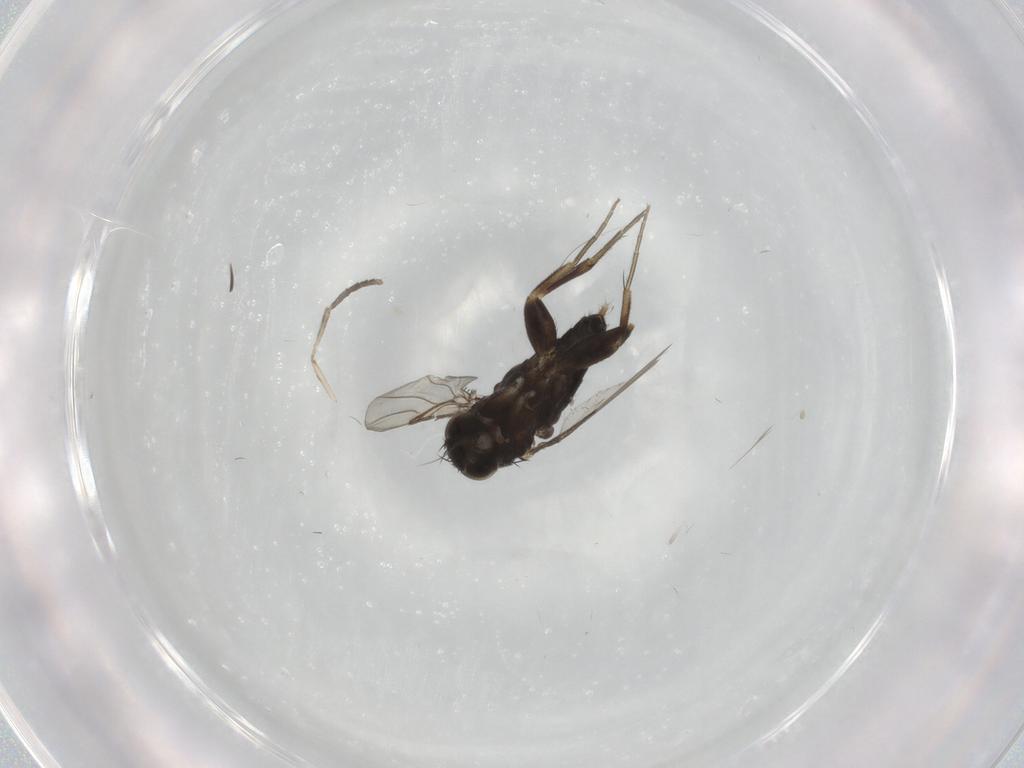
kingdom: Animalia
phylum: Arthropoda
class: Insecta
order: Diptera
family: Phoridae
